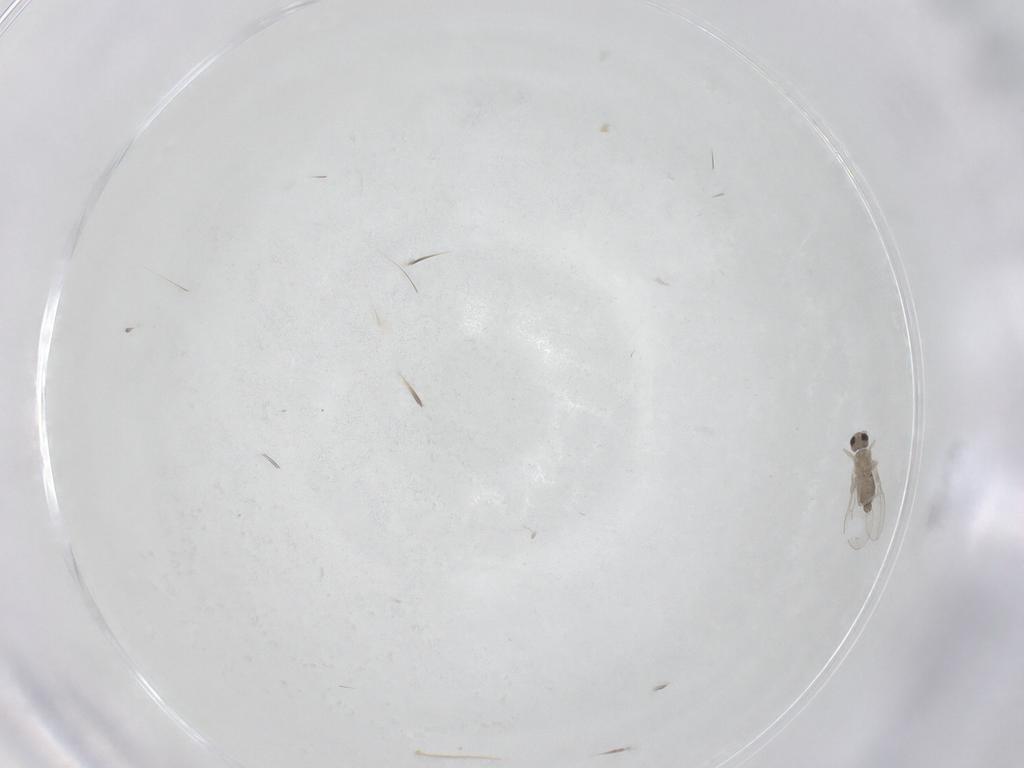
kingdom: Animalia
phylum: Arthropoda
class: Insecta
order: Diptera
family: Cecidomyiidae
